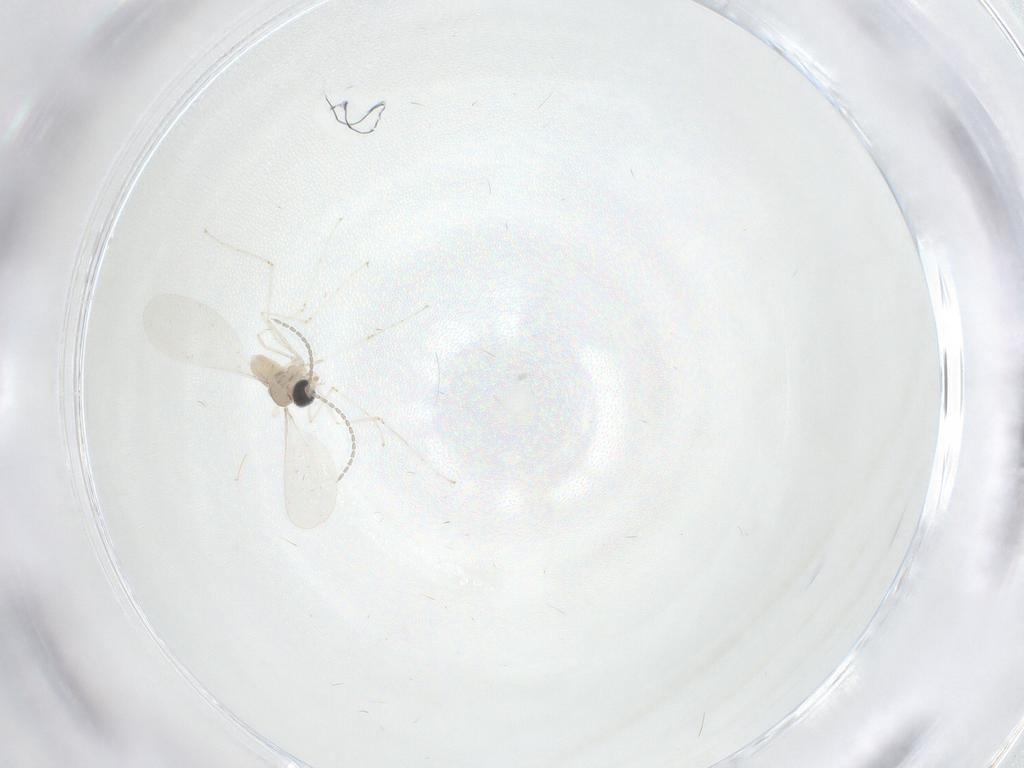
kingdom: Animalia
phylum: Arthropoda
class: Insecta
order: Diptera
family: Cecidomyiidae
